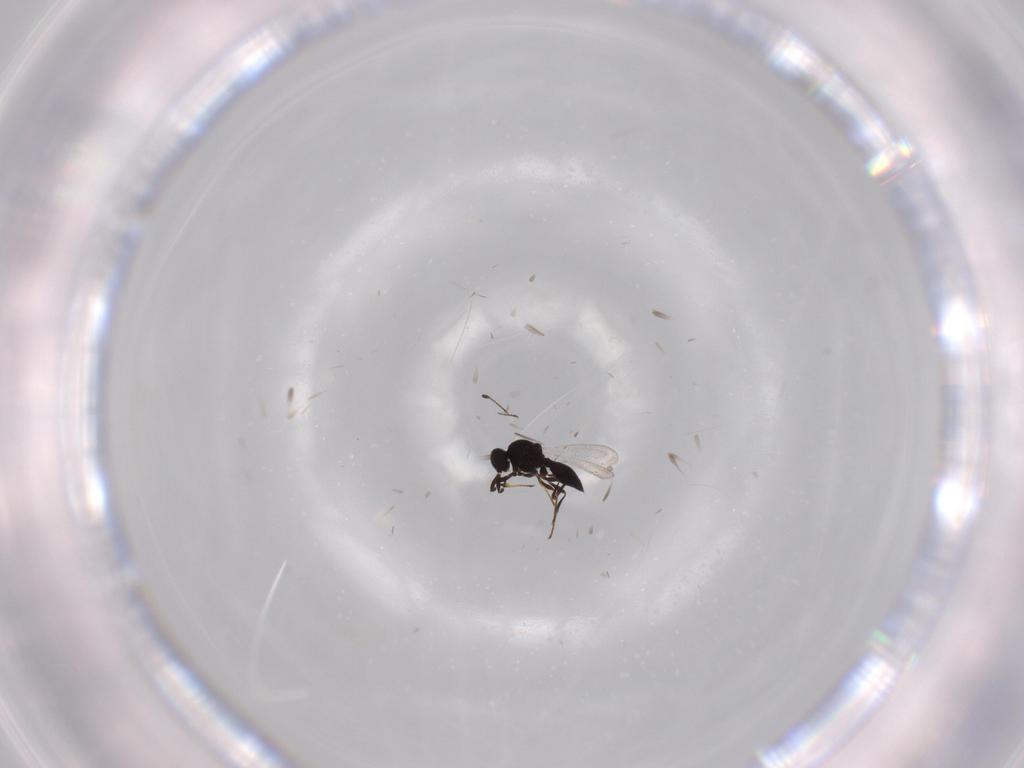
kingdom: Animalia
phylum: Arthropoda
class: Insecta
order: Hymenoptera
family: Platygastridae
